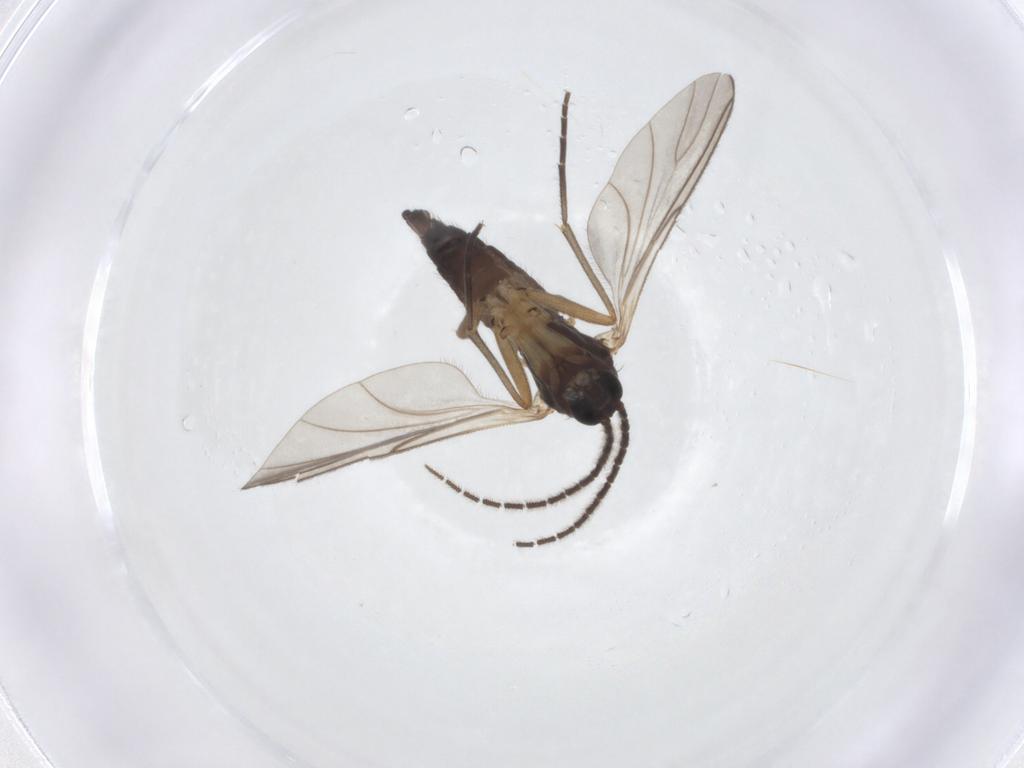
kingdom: Animalia
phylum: Arthropoda
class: Insecta
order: Diptera
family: Sciaridae
